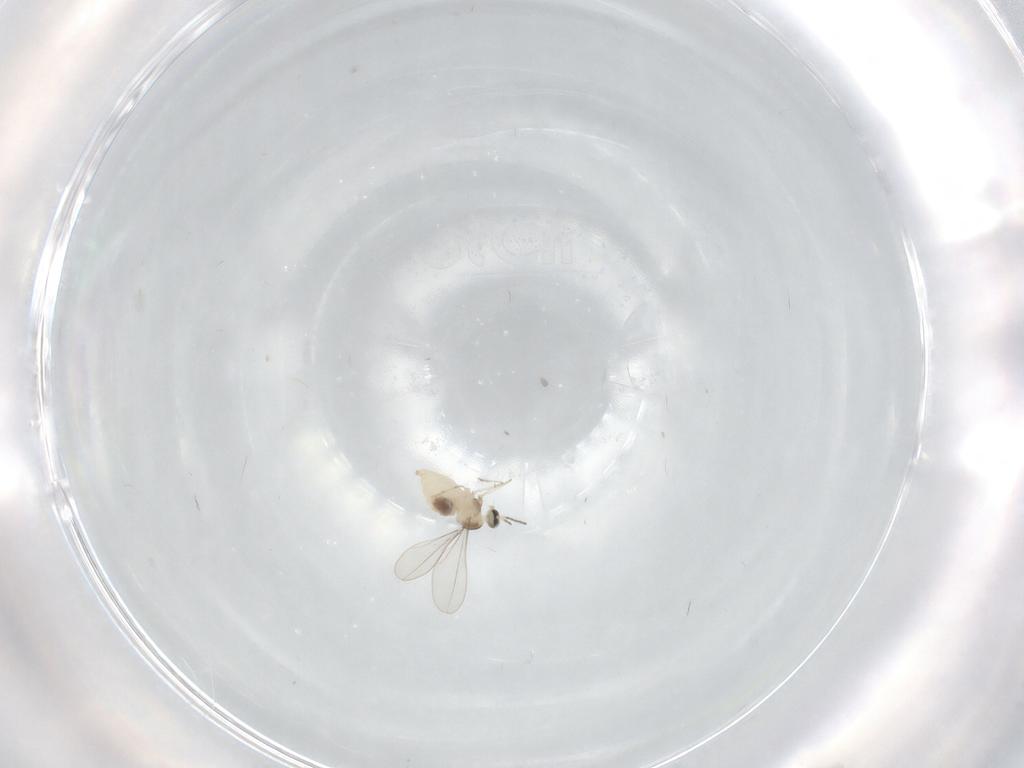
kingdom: Animalia
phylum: Arthropoda
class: Insecta
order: Diptera
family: Cecidomyiidae
